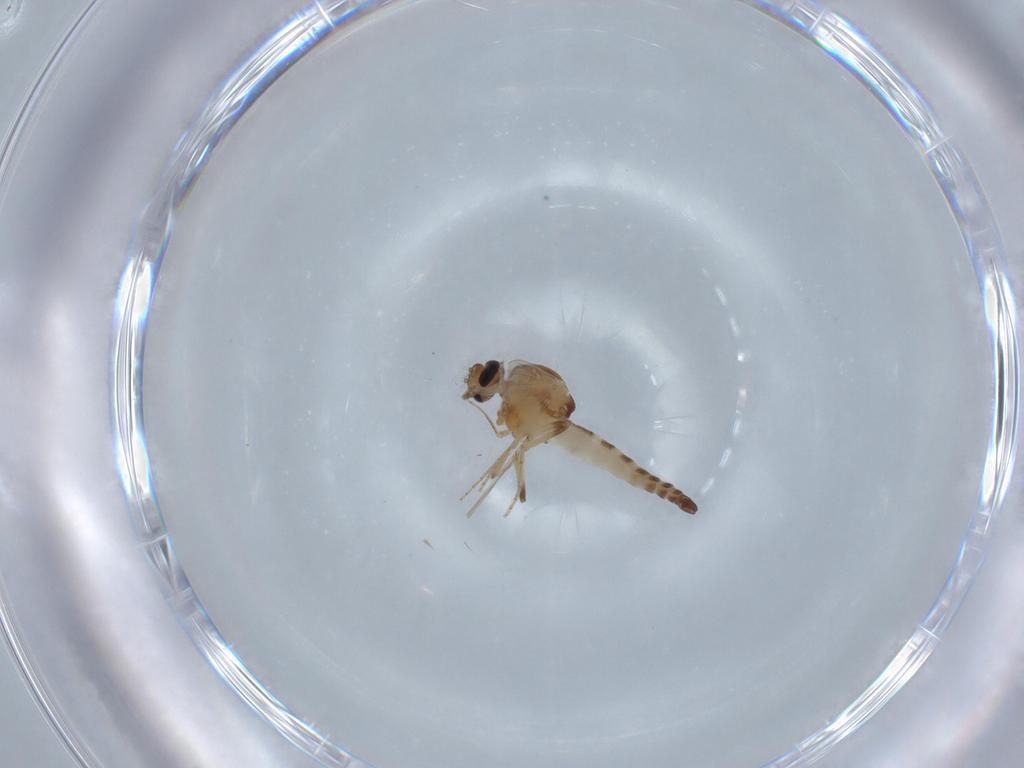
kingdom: Animalia
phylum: Arthropoda
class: Insecta
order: Diptera
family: Ceratopogonidae
